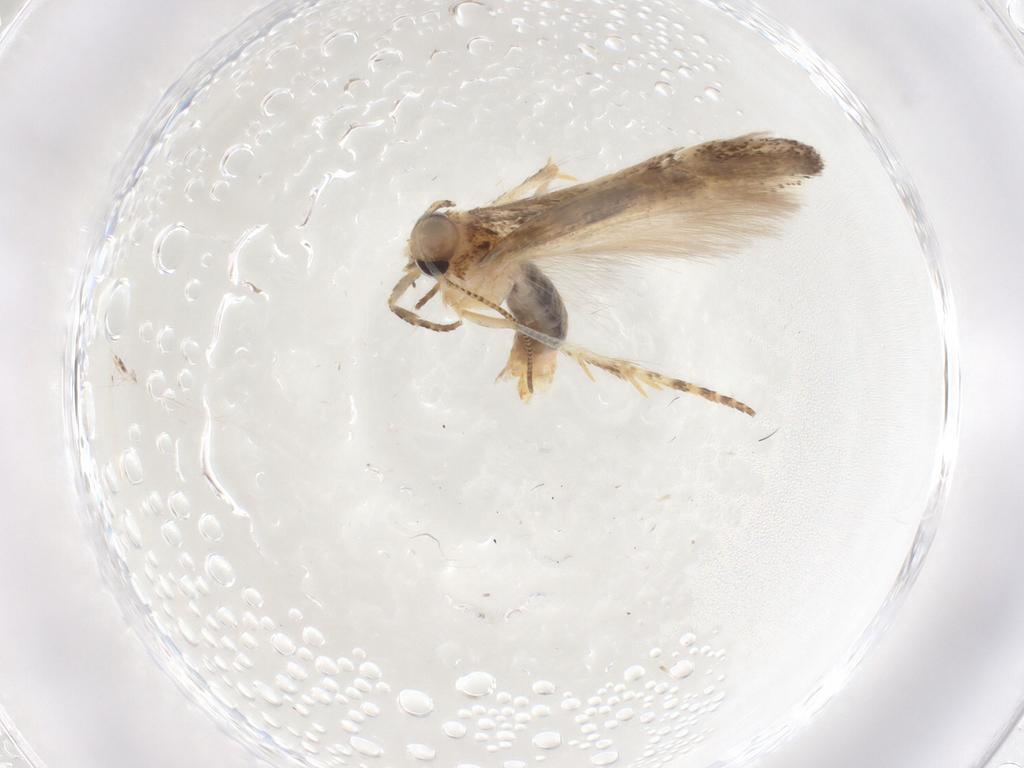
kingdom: Animalia
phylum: Arthropoda
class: Insecta
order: Lepidoptera
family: Gelechiidae
